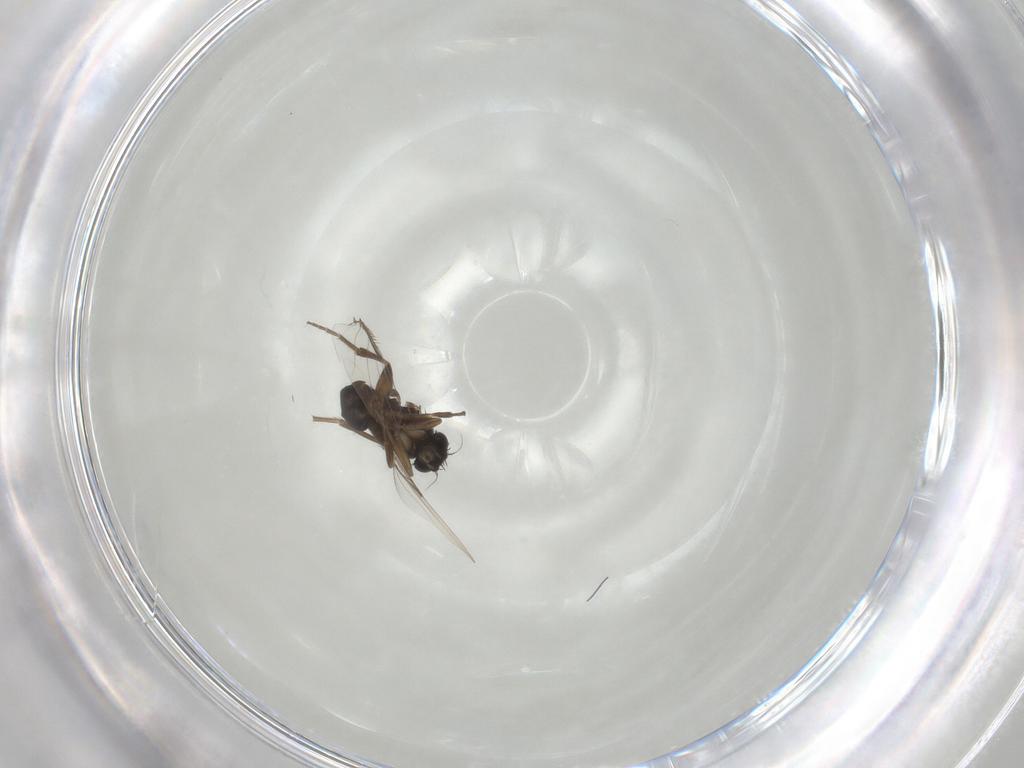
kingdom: Animalia
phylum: Arthropoda
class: Insecta
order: Diptera
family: Phoridae
